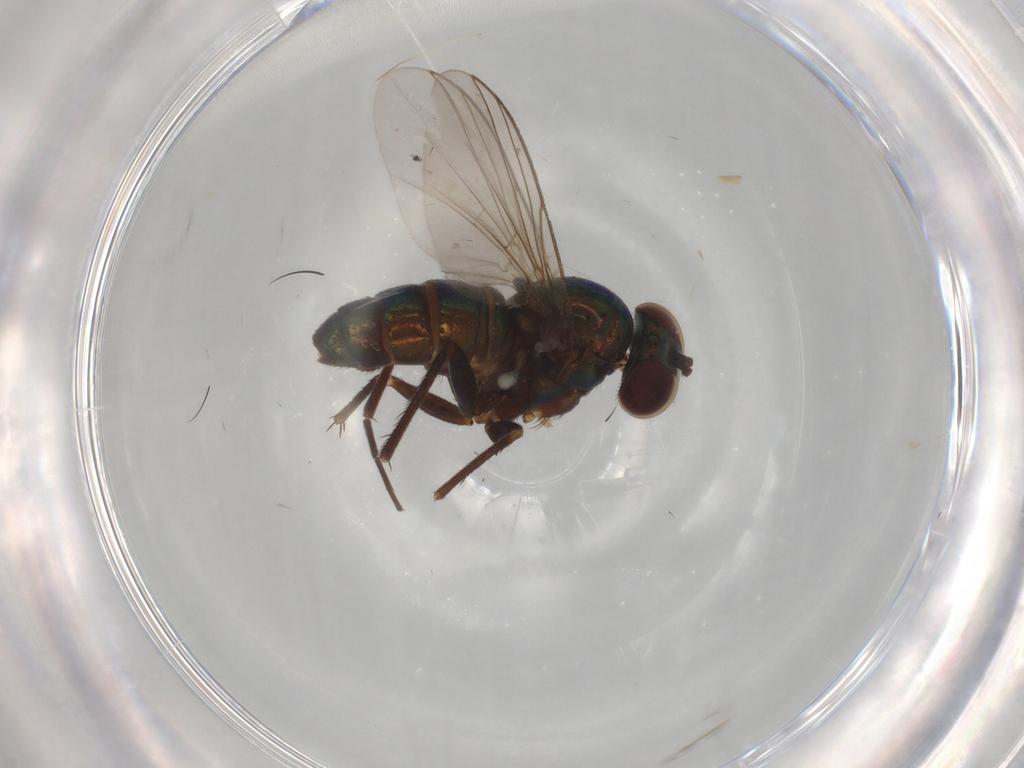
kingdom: Animalia
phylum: Arthropoda
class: Insecta
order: Diptera
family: Dolichopodidae
